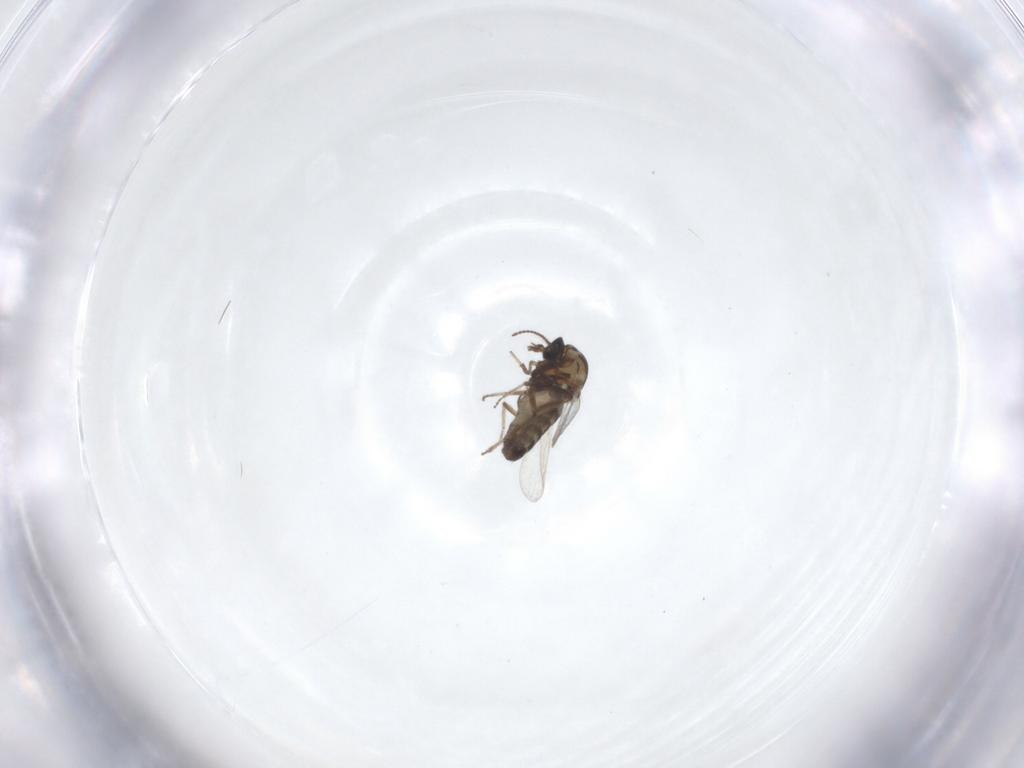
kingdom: Animalia
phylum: Arthropoda
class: Insecta
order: Diptera
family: Ceratopogonidae
